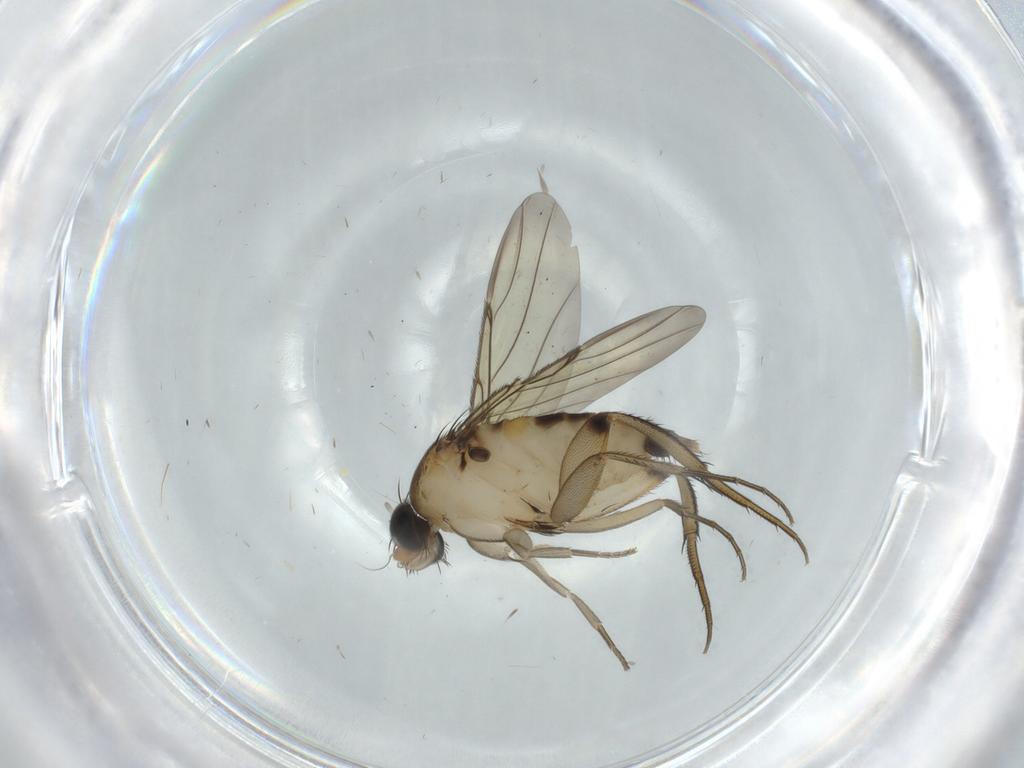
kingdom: Animalia
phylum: Arthropoda
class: Insecta
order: Diptera
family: Phoridae
